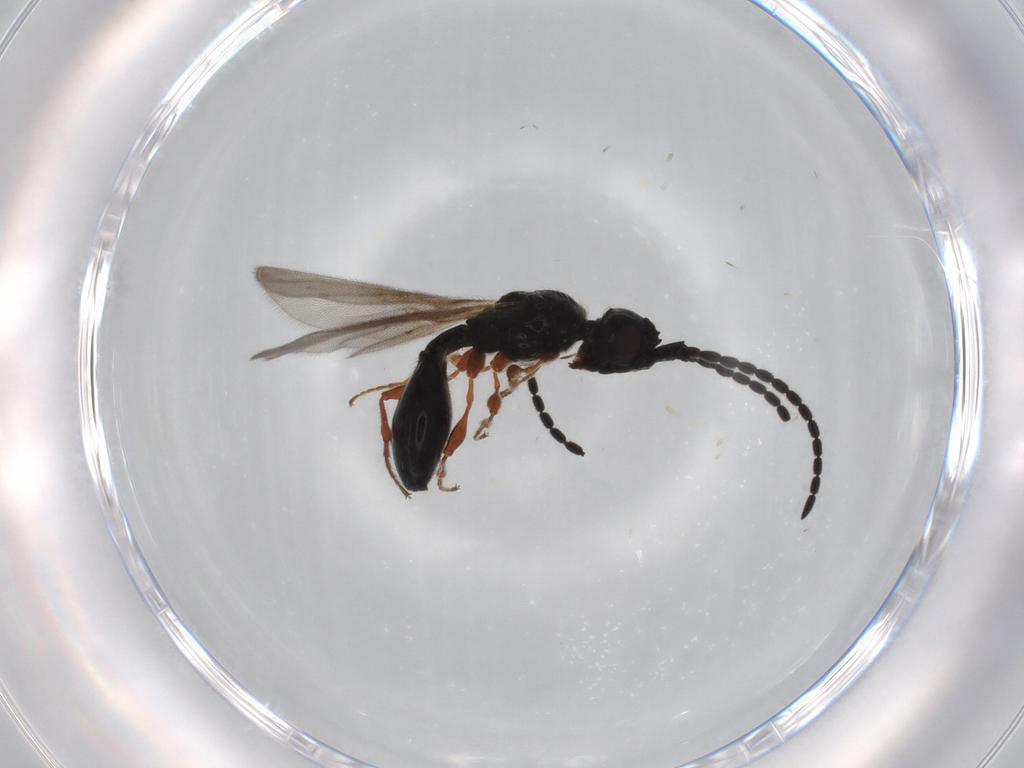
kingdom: Animalia
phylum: Arthropoda
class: Insecta
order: Hymenoptera
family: Diapriidae
